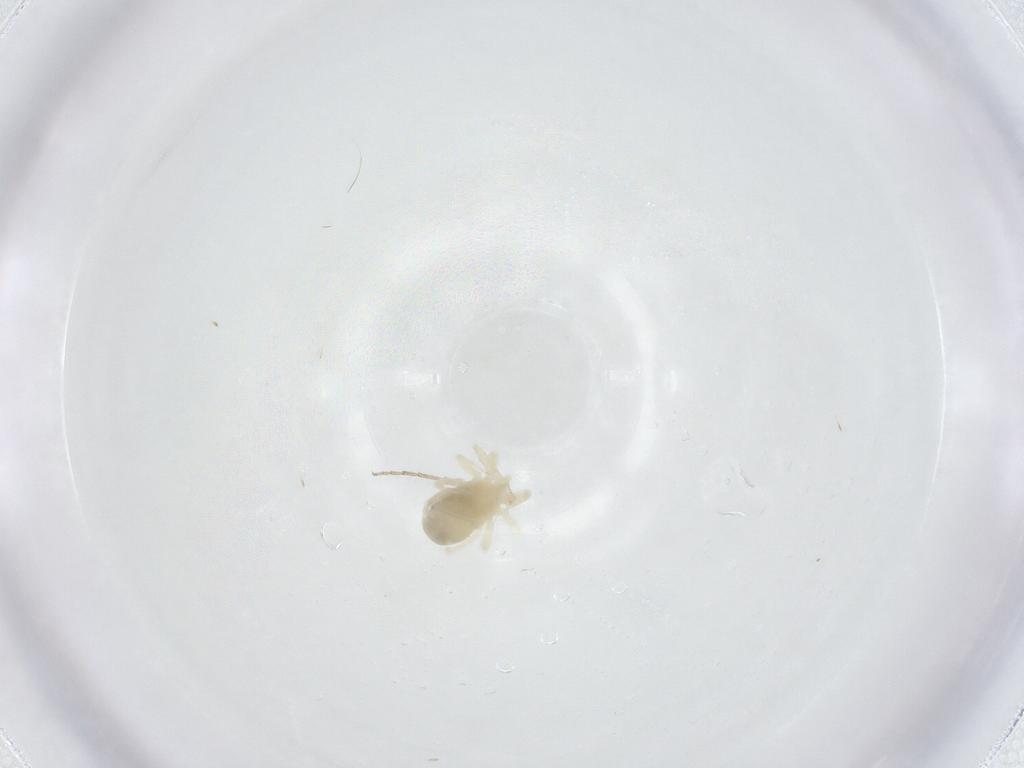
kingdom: Animalia
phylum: Arthropoda
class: Arachnida
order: Trombidiformes
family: Anystidae
